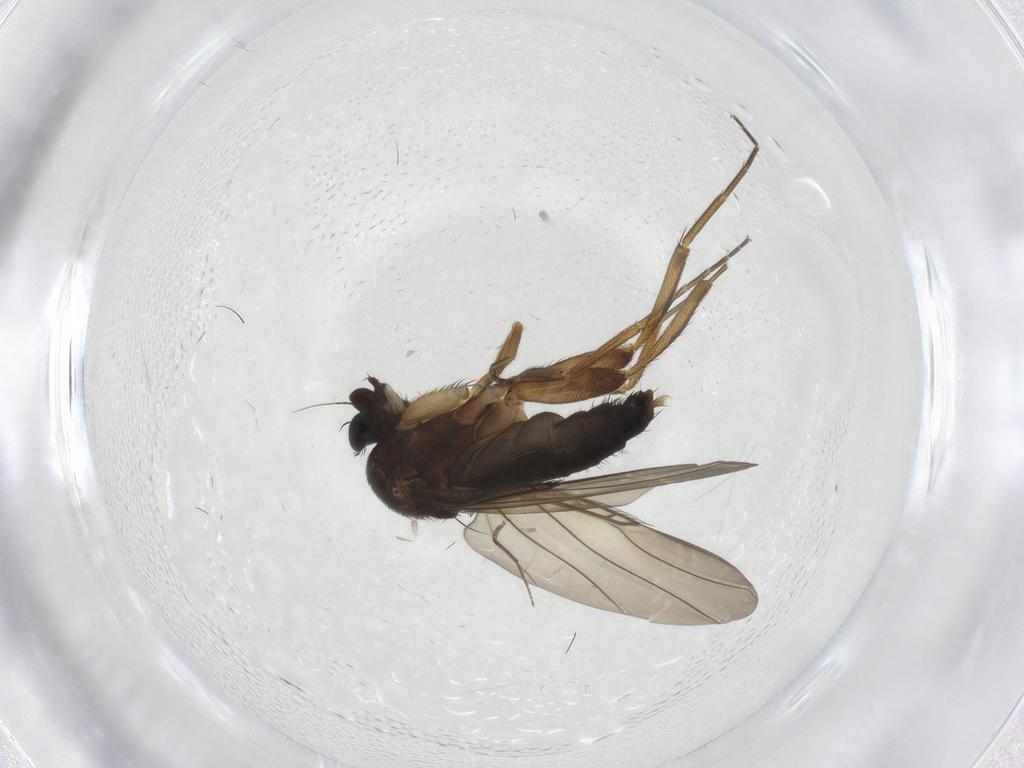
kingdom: Animalia
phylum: Arthropoda
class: Insecta
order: Diptera
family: Phoridae
